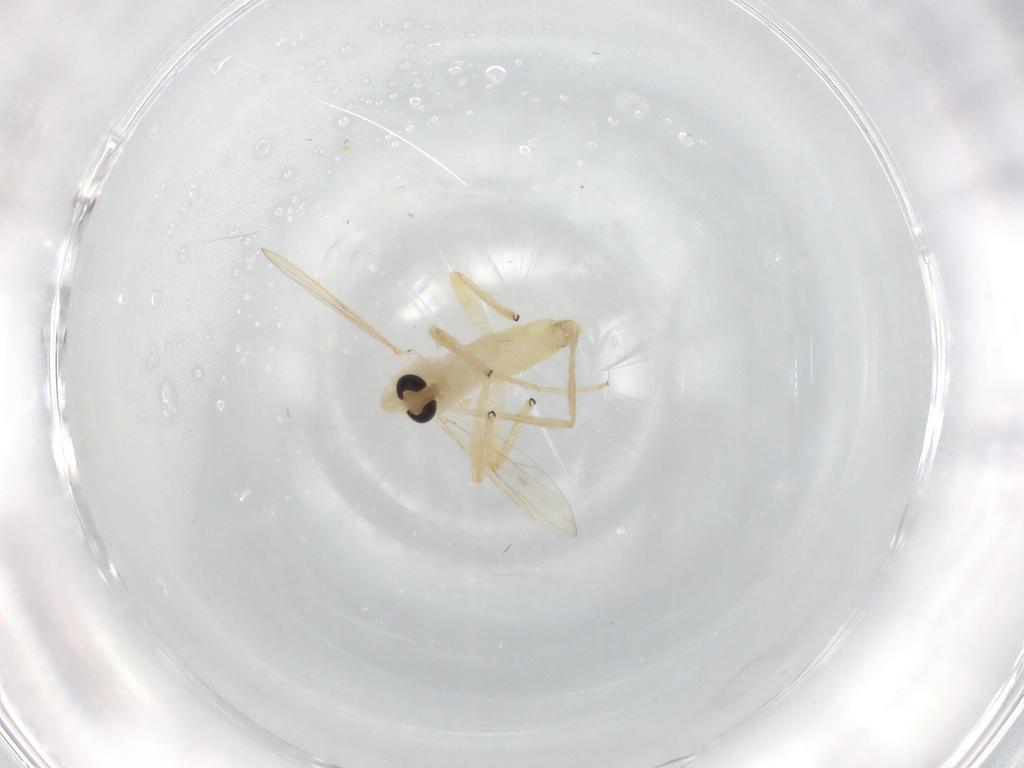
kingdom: Animalia
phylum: Arthropoda
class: Insecta
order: Diptera
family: Chironomidae
